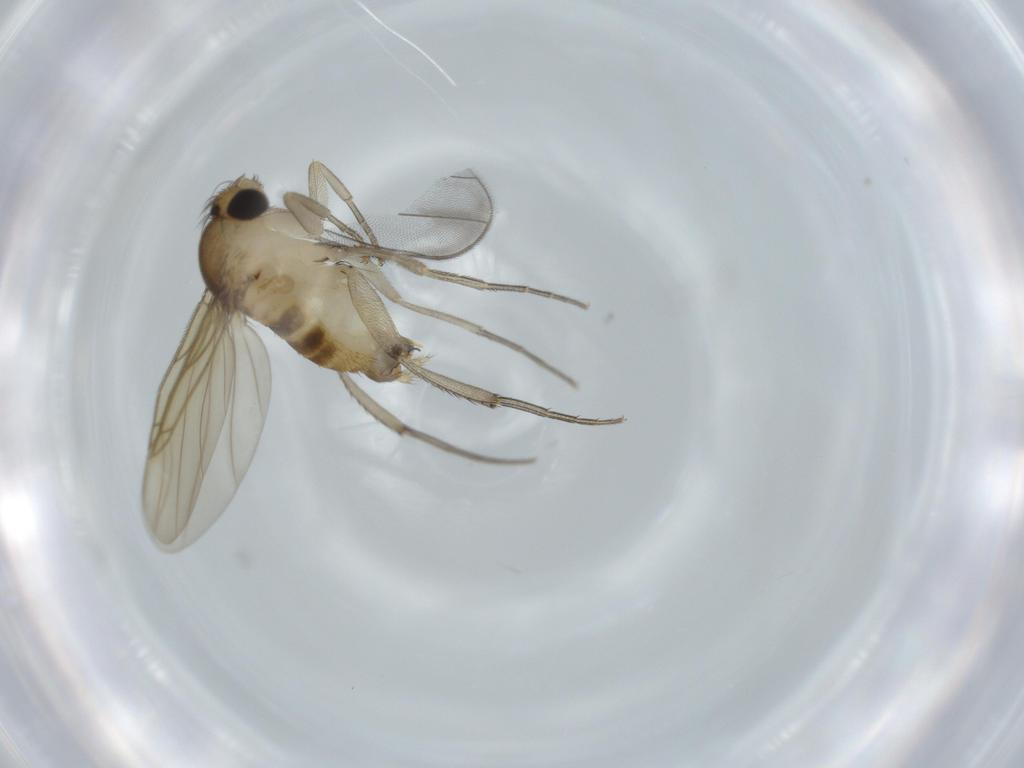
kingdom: Animalia
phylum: Arthropoda
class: Insecta
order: Diptera
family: Phoridae
